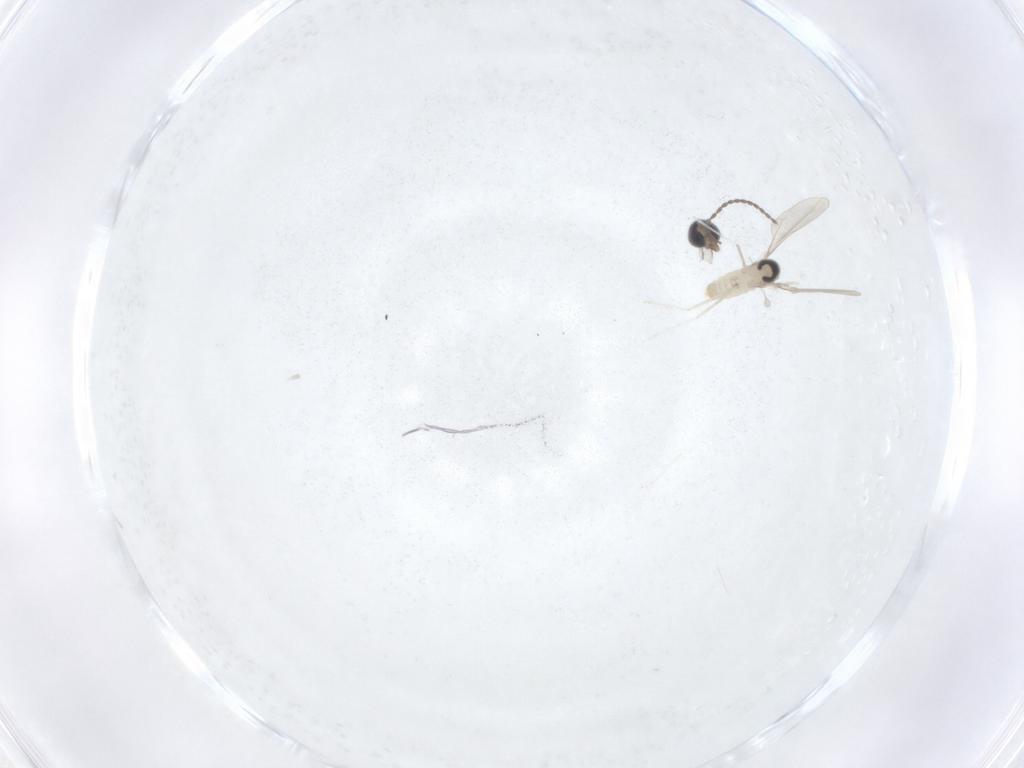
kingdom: Animalia
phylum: Arthropoda
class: Insecta
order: Diptera
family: Cecidomyiidae
